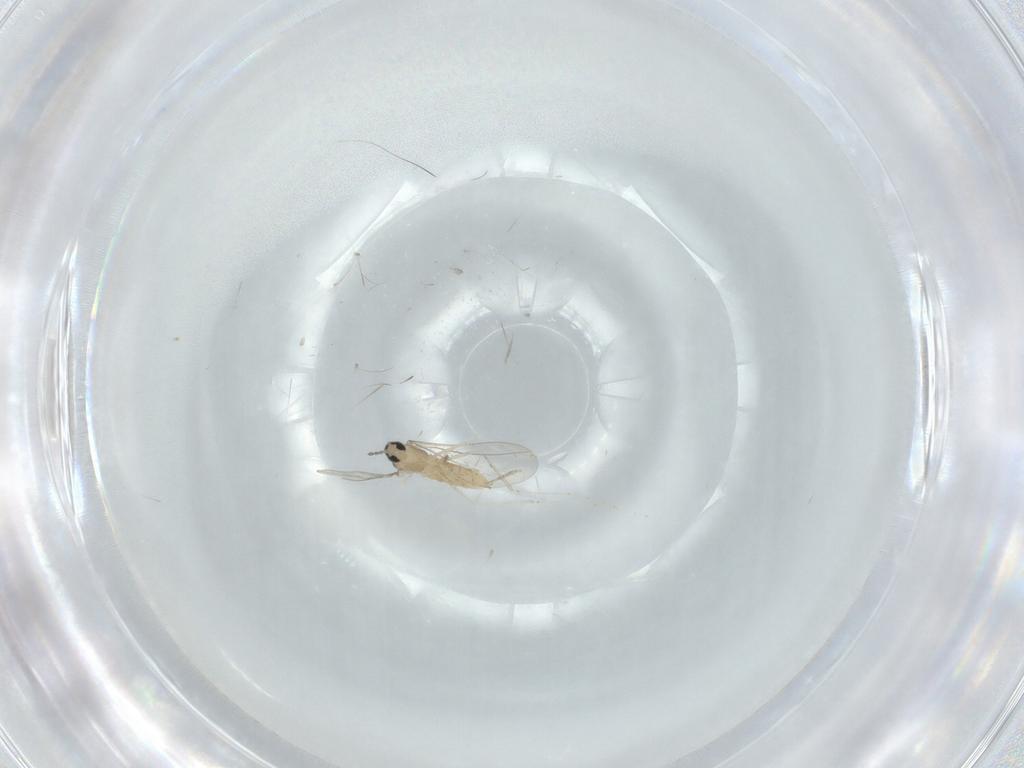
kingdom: Animalia
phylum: Arthropoda
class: Insecta
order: Diptera
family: Cecidomyiidae
